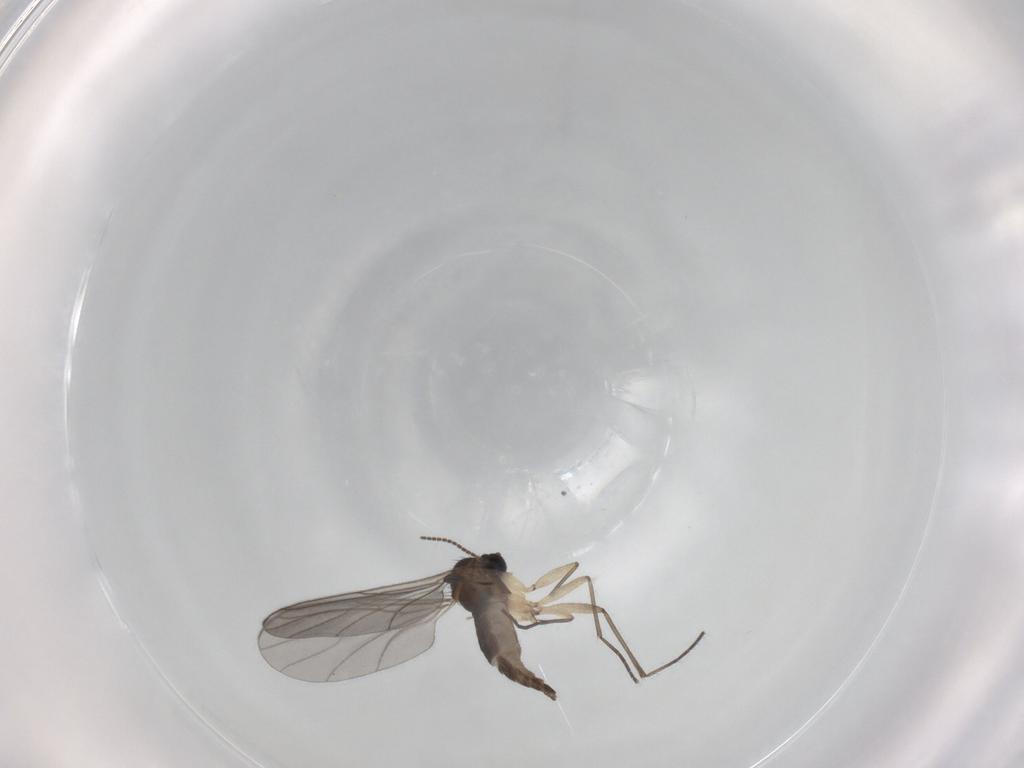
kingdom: Animalia
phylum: Arthropoda
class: Insecta
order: Diptera
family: Sciaridae
